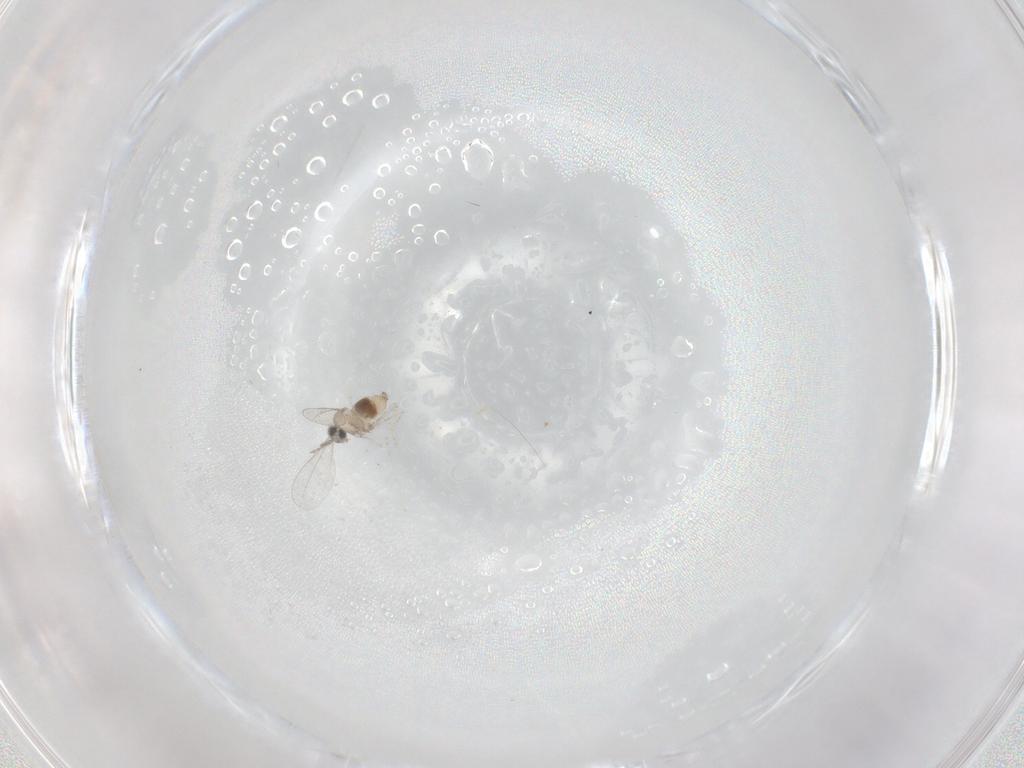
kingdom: Animalia
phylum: Arthropoda
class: Insecta
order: Diptera
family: Cecidomyiidae
